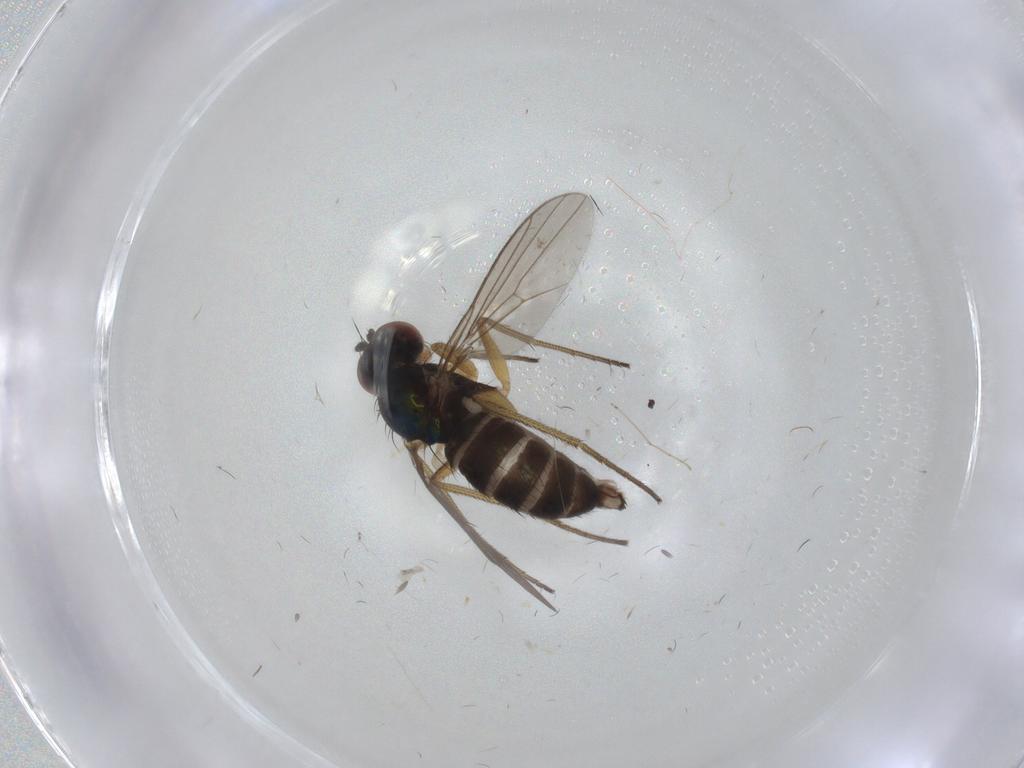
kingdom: Animalia
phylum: Arthropoda
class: Insecta
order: Diptera
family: Dolichopodidae
